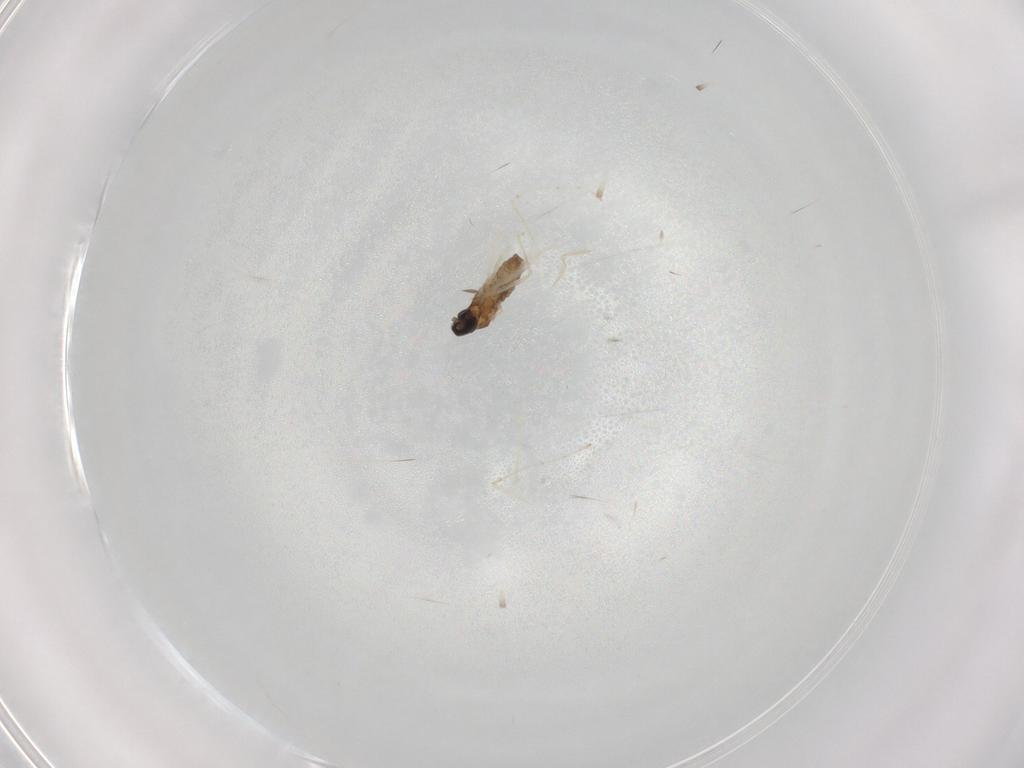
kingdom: Animalia
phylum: Arthropoda
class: Insecta
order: Diptera
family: Cecidomyiidae
